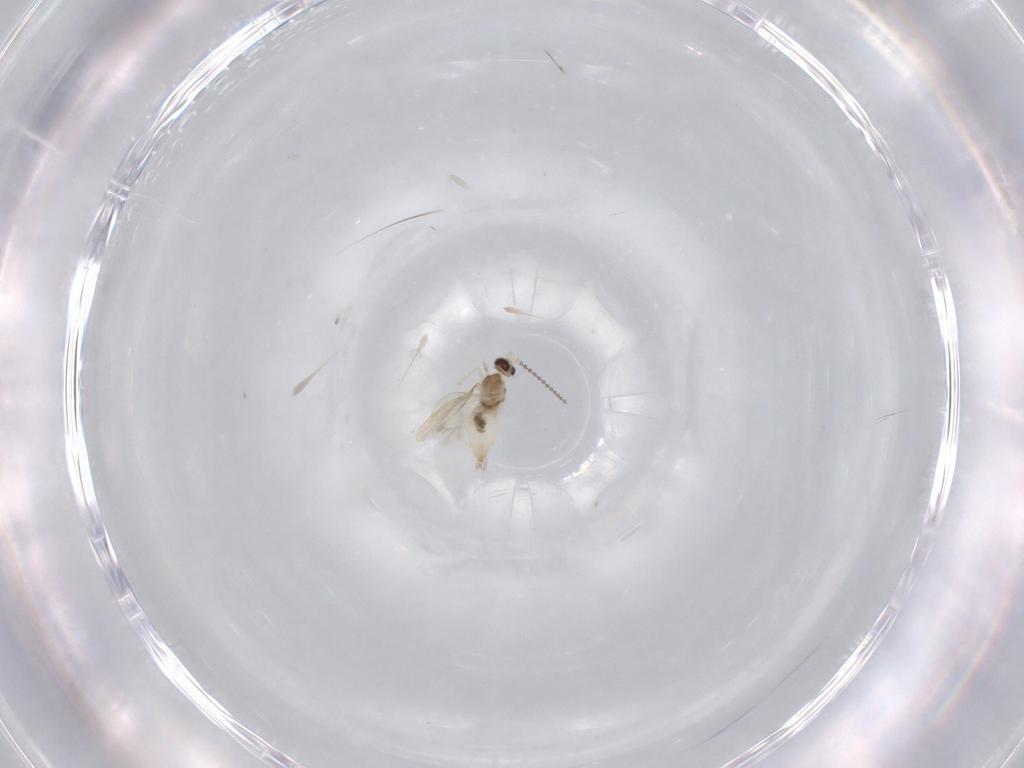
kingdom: Animalia
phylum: Arthropoda
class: Insecta
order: Diptera
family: Cecidomyiidae
